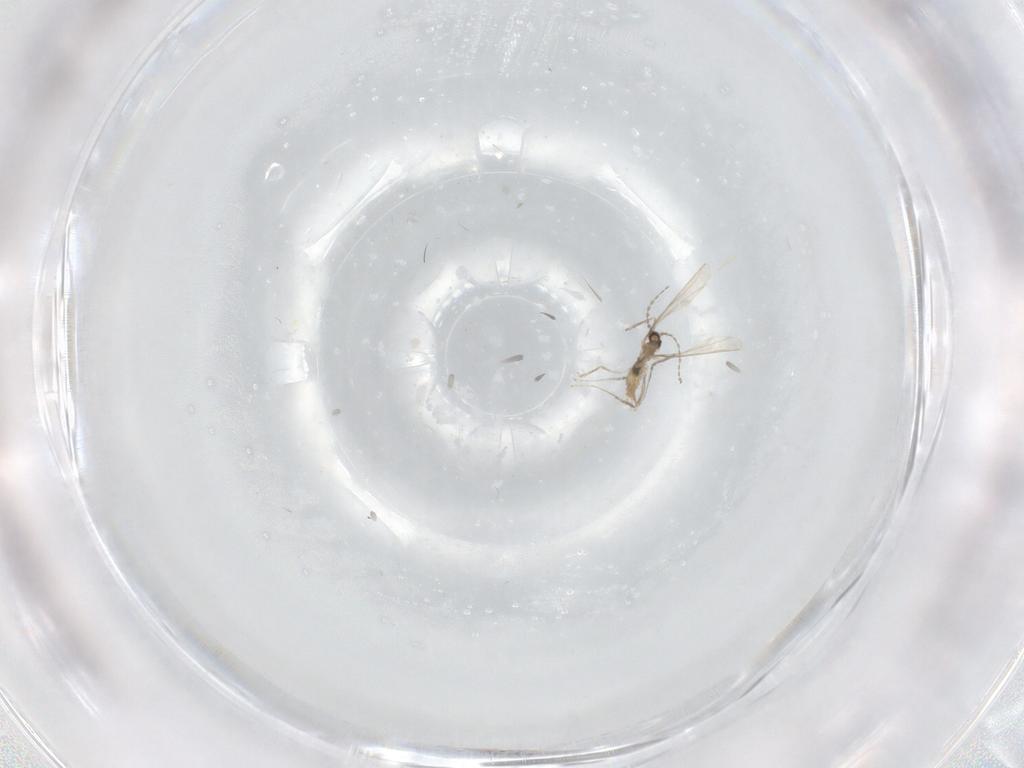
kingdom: Animalia
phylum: Arthropoda
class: Insecta
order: Diptera
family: Cecidomyiidae
